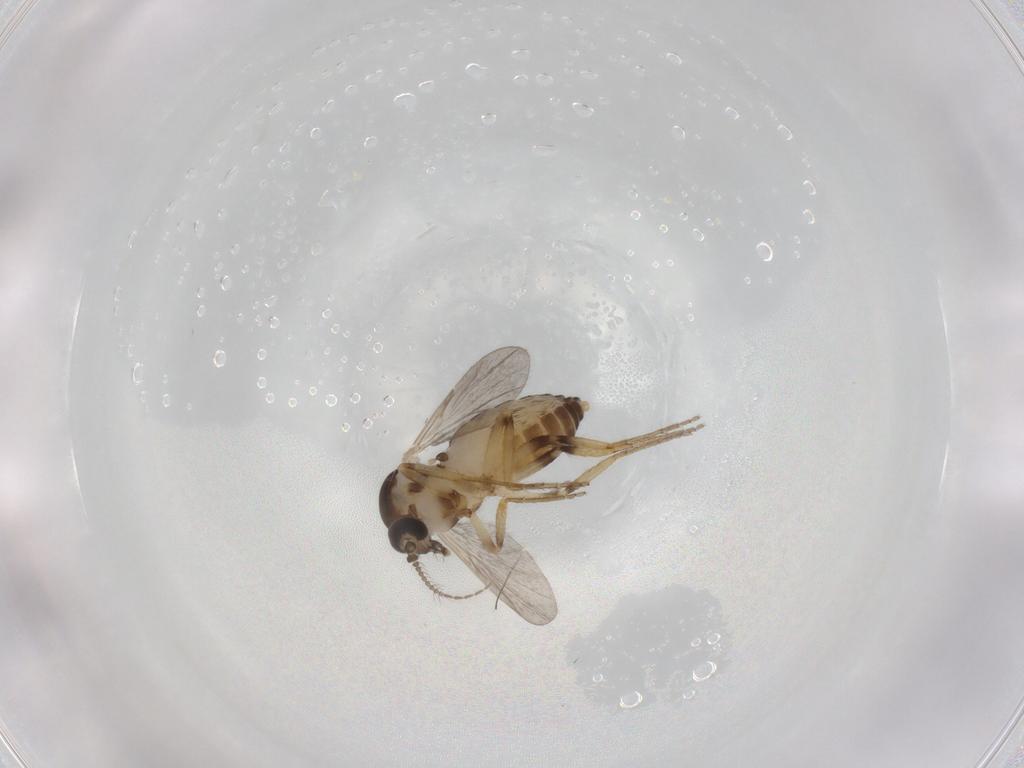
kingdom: Animalia
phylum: Arthropoda
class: Insecta
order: Diptera
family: Ceratopogonidae
